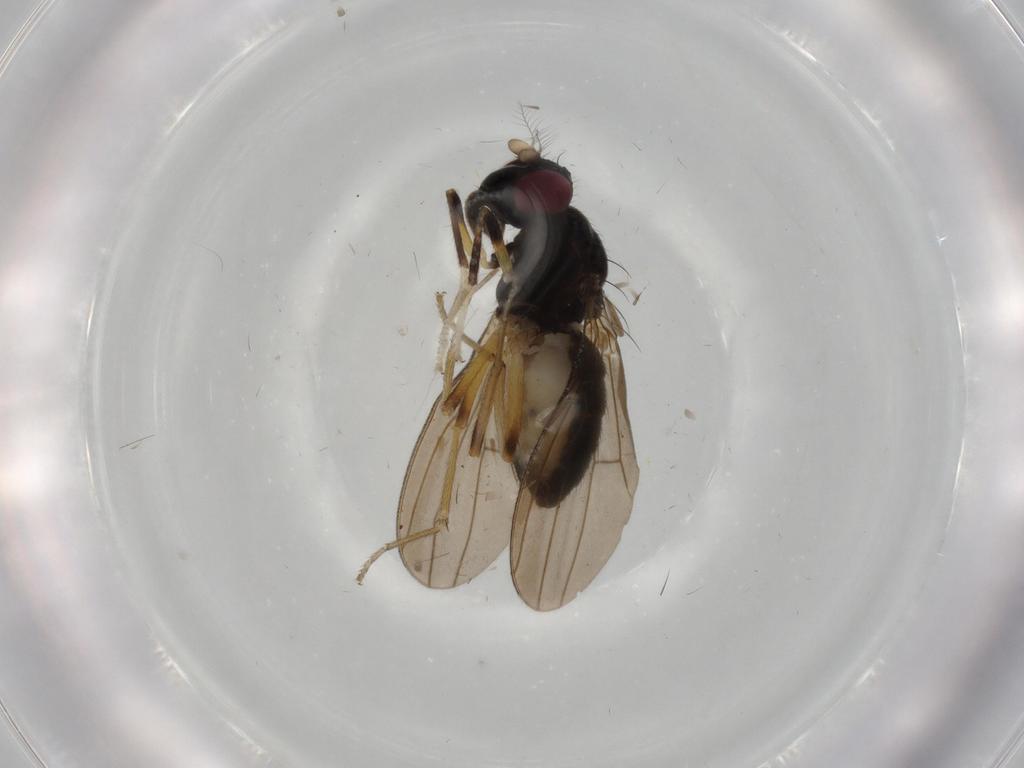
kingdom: Animalia
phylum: Arthropoda
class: Insecta
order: Diptera
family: Lauxaniidae
